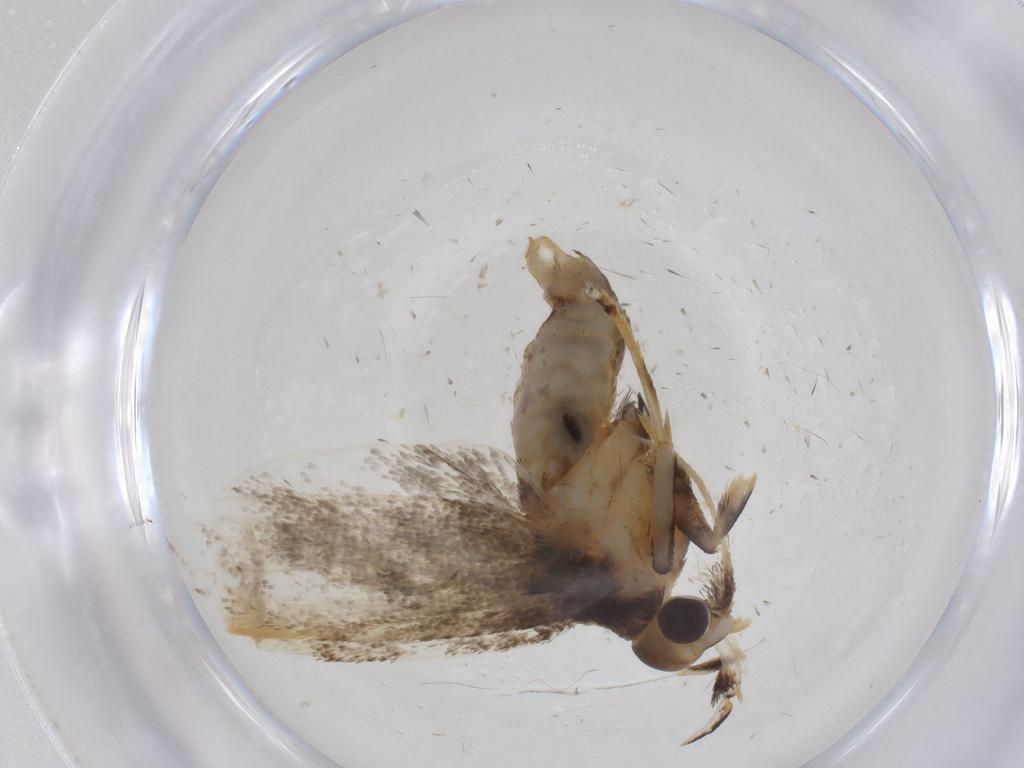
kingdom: Animalia
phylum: Arthropoda
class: Insecta
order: Lepidoptera
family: Lecithoceridae
